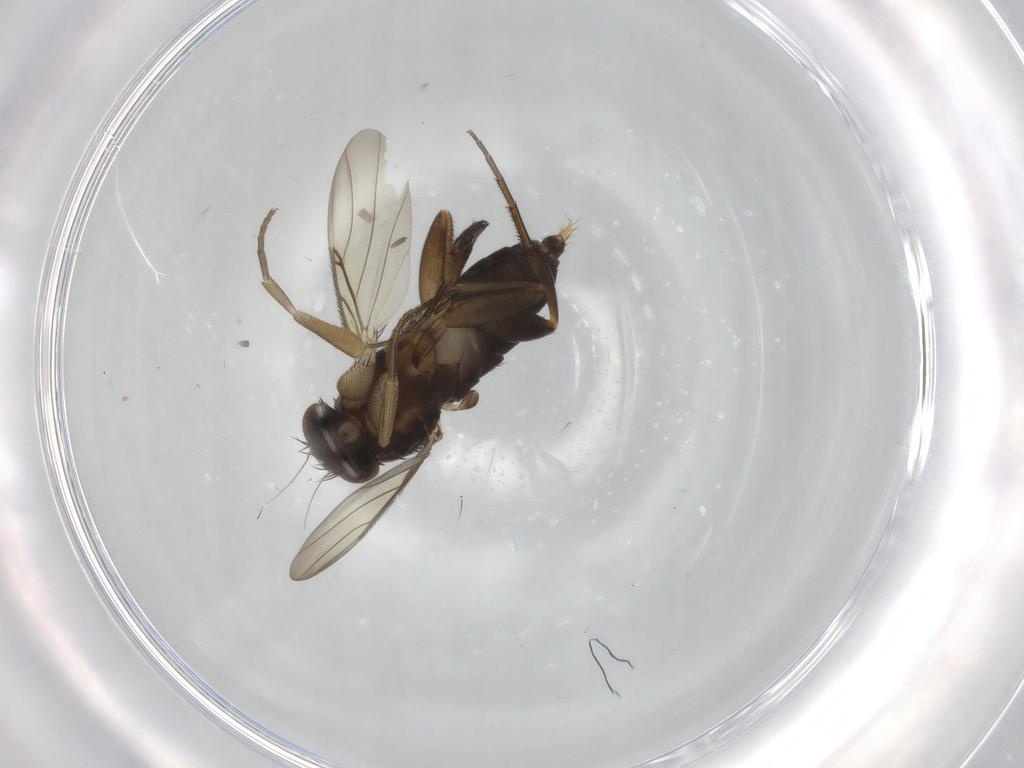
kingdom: Animalia
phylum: Arthropoda
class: Insecta
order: Diptera
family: Phoridae
